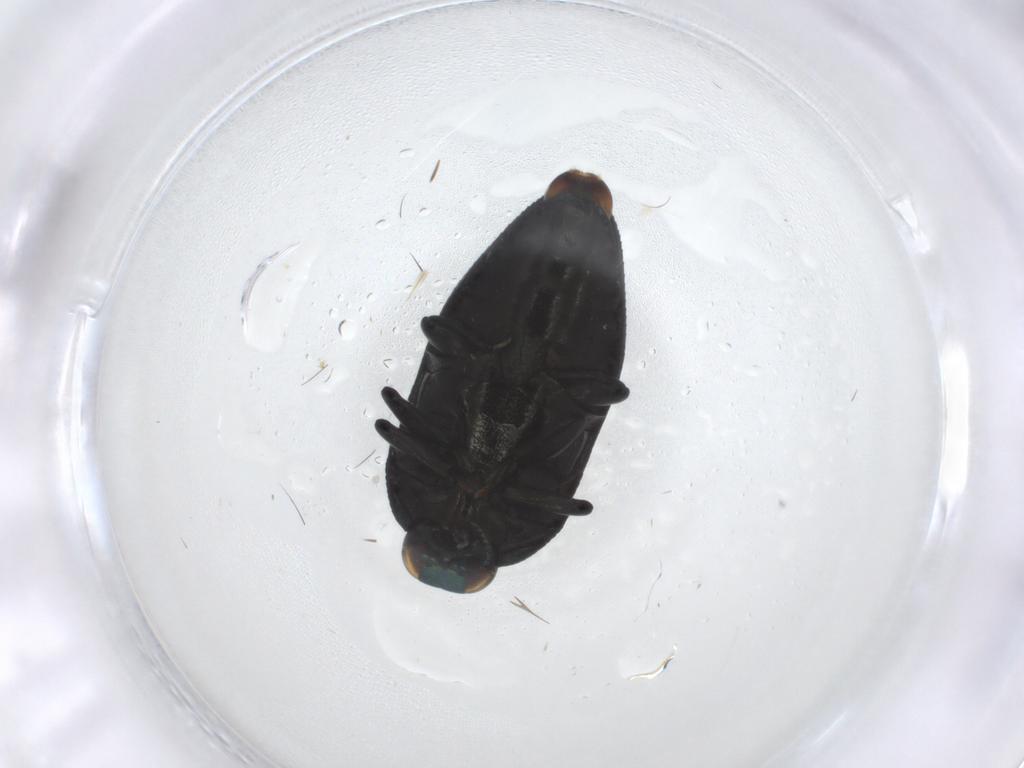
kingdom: Animalia
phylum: Arthropoda
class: Insecta
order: Coleoptera
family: Buprestidae
